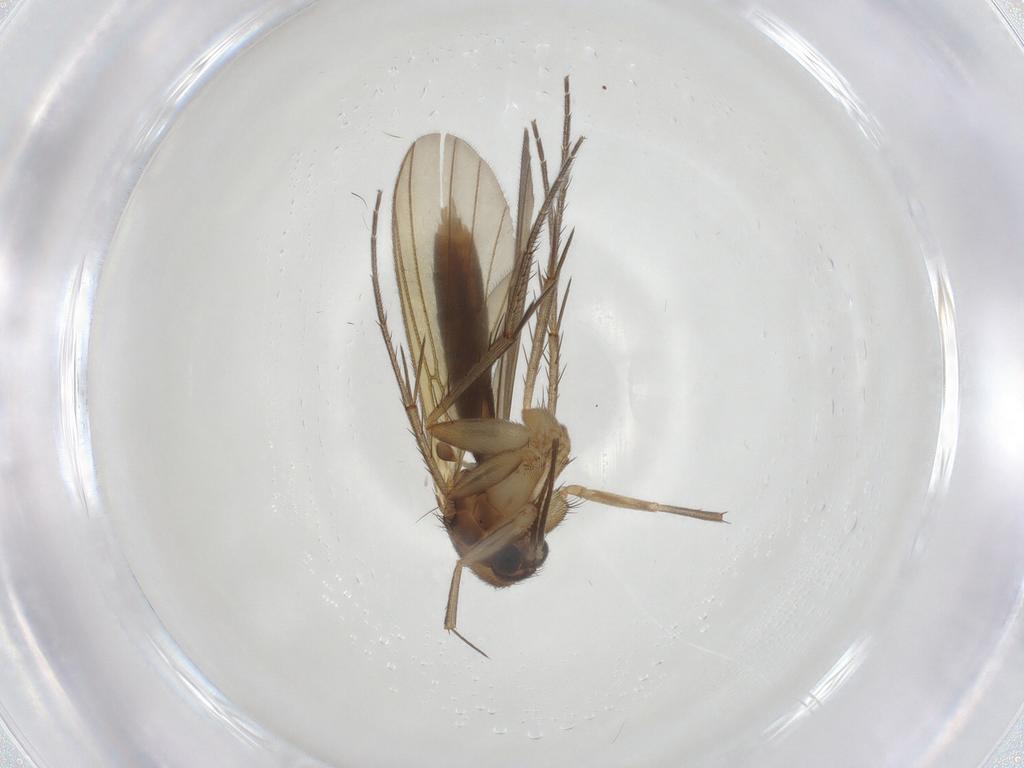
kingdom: Animalia
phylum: Arthropoda
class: Insecta
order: Diptera
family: Mycetophilidae
